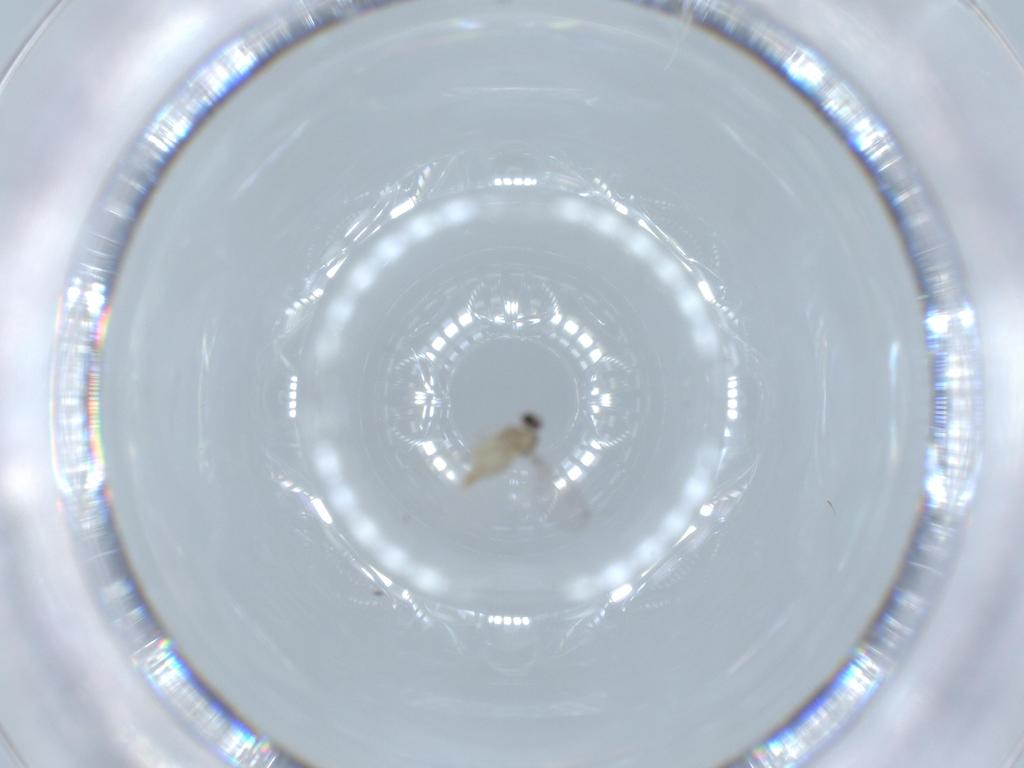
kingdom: Animalia
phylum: Arthropoda
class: Insecta
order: Diptera
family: Cecidomyiidae
